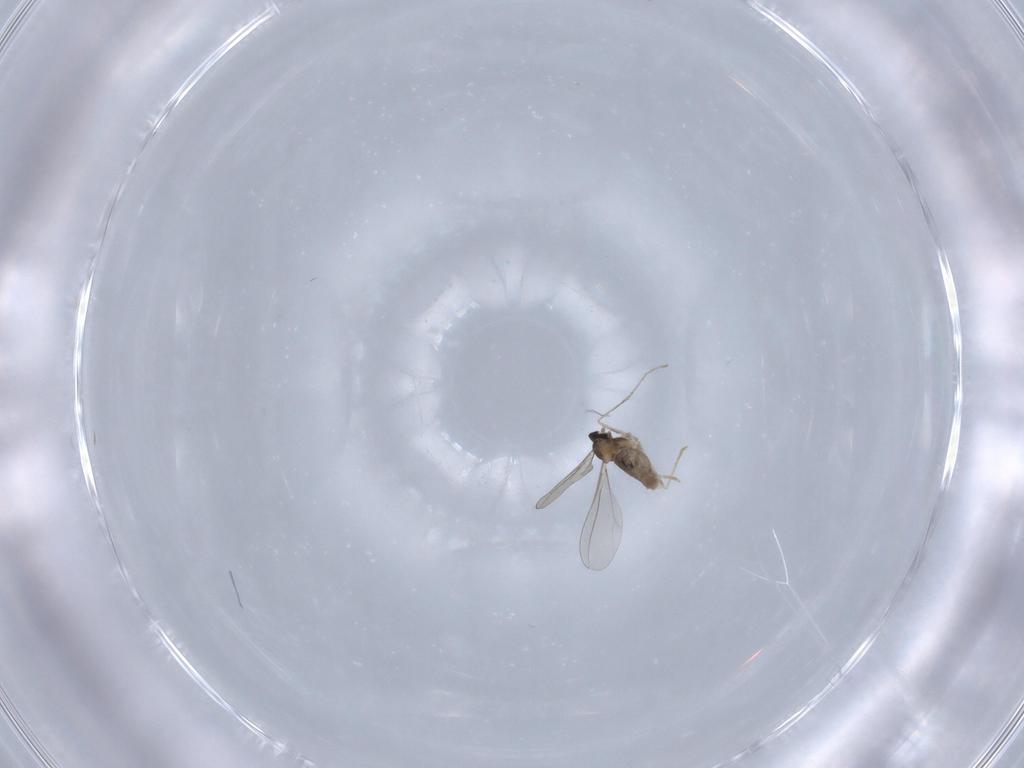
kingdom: Animalia
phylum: Arthropoda
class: Insecta
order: Diptera
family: Cecidomyiidae
